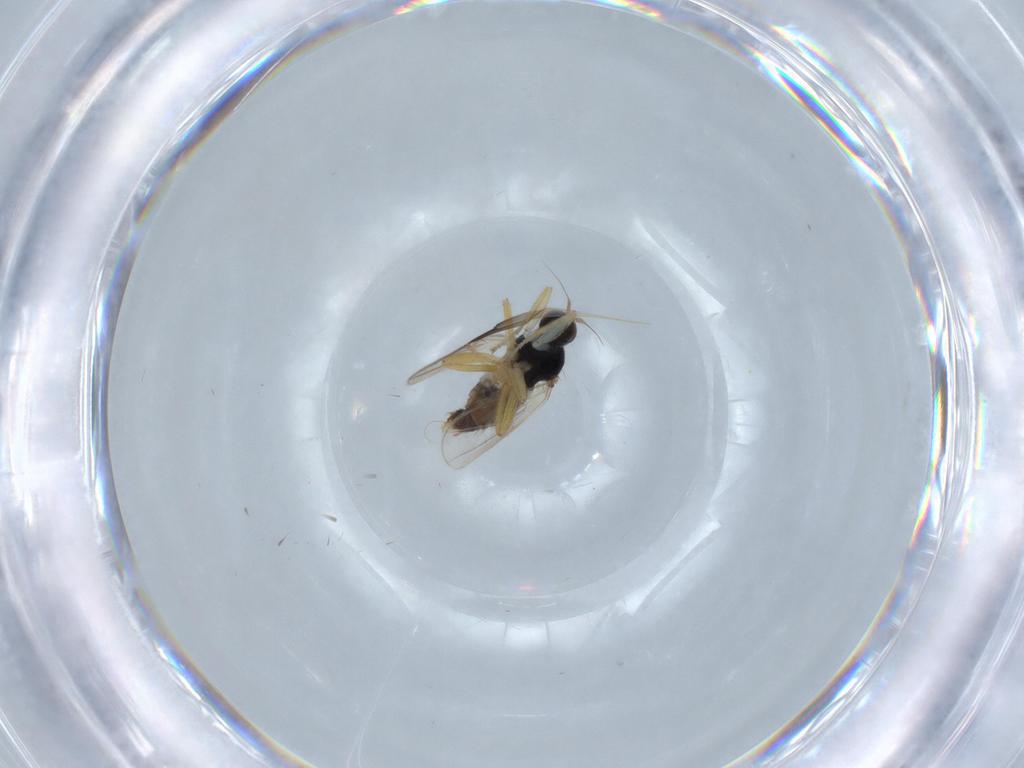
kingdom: Animalia
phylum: Arthropoda
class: Insecta
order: Diptera
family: Hybotidae
